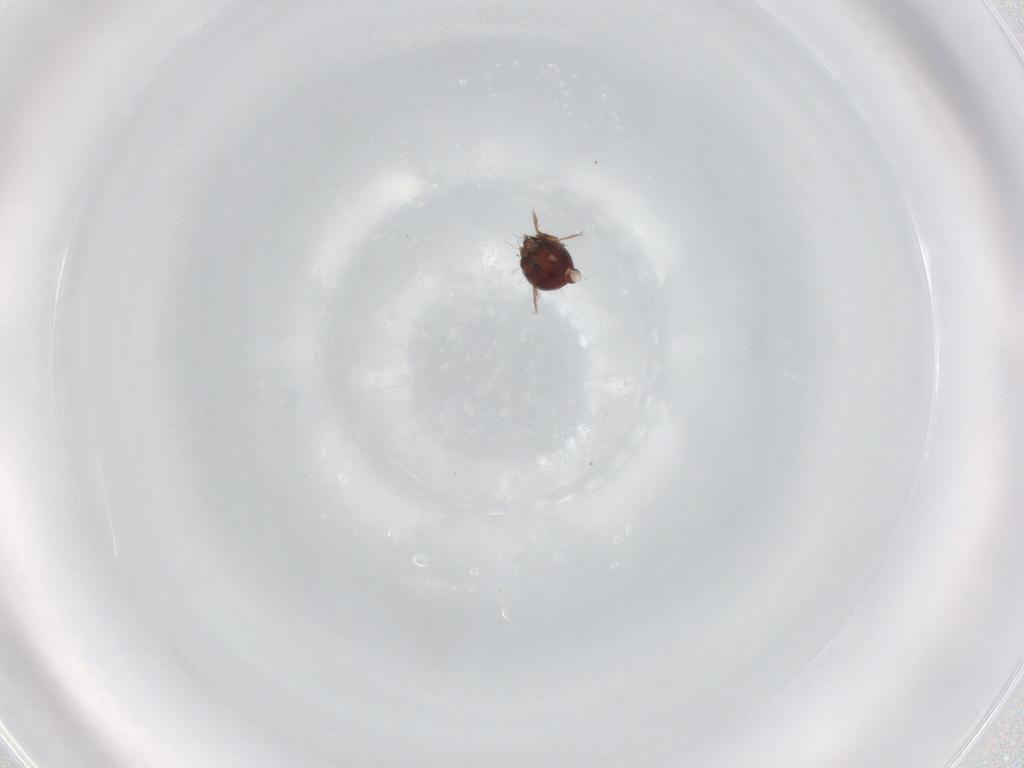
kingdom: Animalia
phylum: Arthropoda
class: Arachnida
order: Sarcoptiformes
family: Humerobatidae
